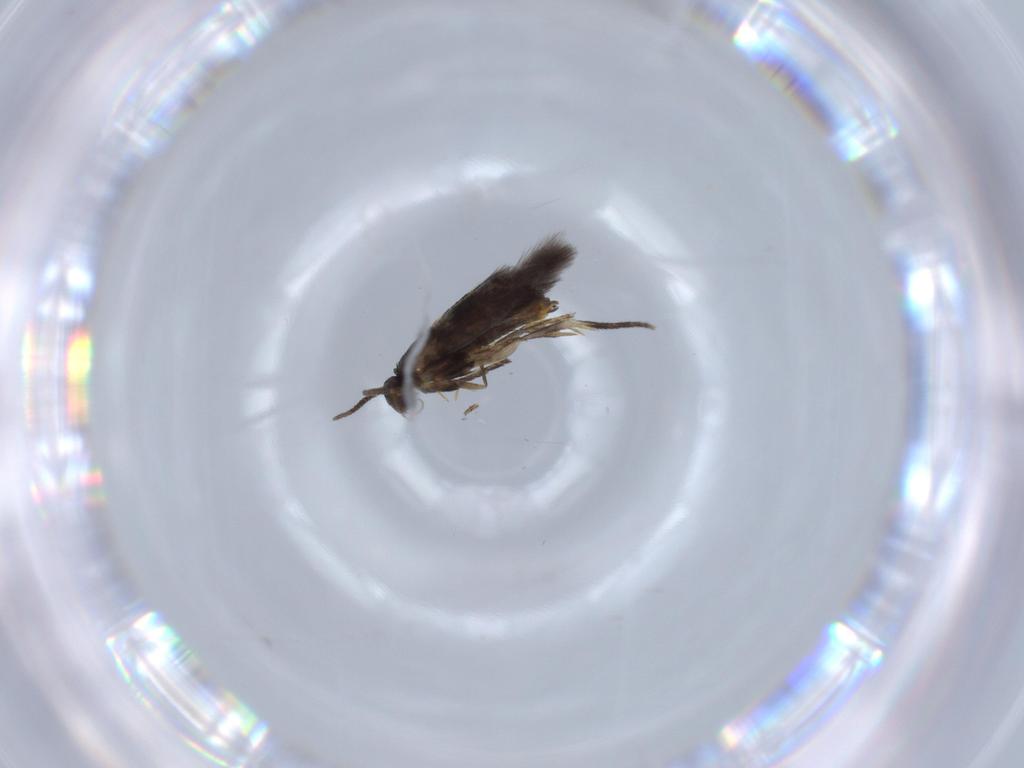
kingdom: Animalia
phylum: Arthropoda
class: Insecta
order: Lepidoptera
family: Heliozelidae
